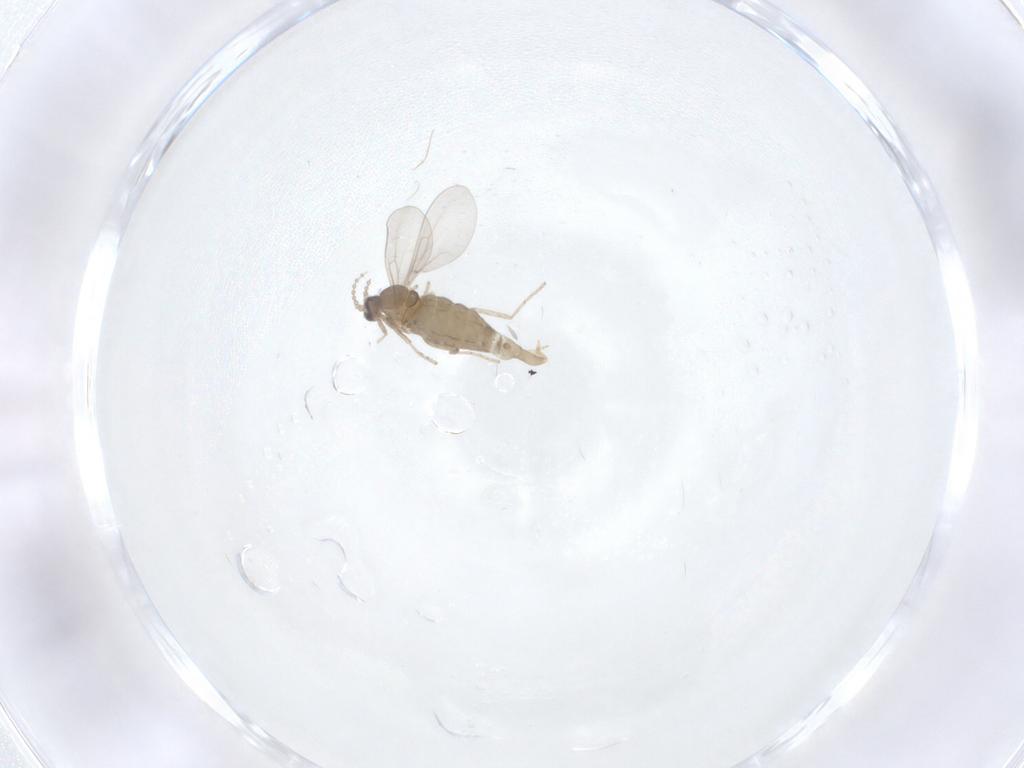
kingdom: Animalia
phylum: Arthropoda
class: Insecta
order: Diptera
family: Cecidomyiidae
